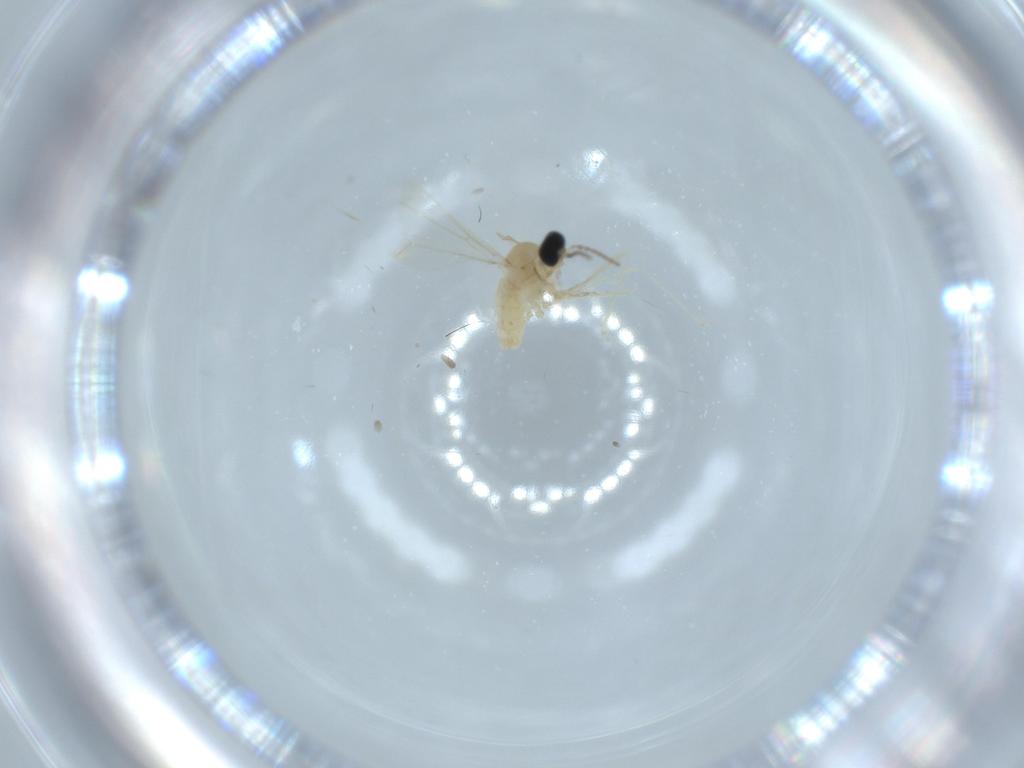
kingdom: Animalia
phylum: Arthropoda
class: Insecta
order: Diptera
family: Cecidomyiidae
